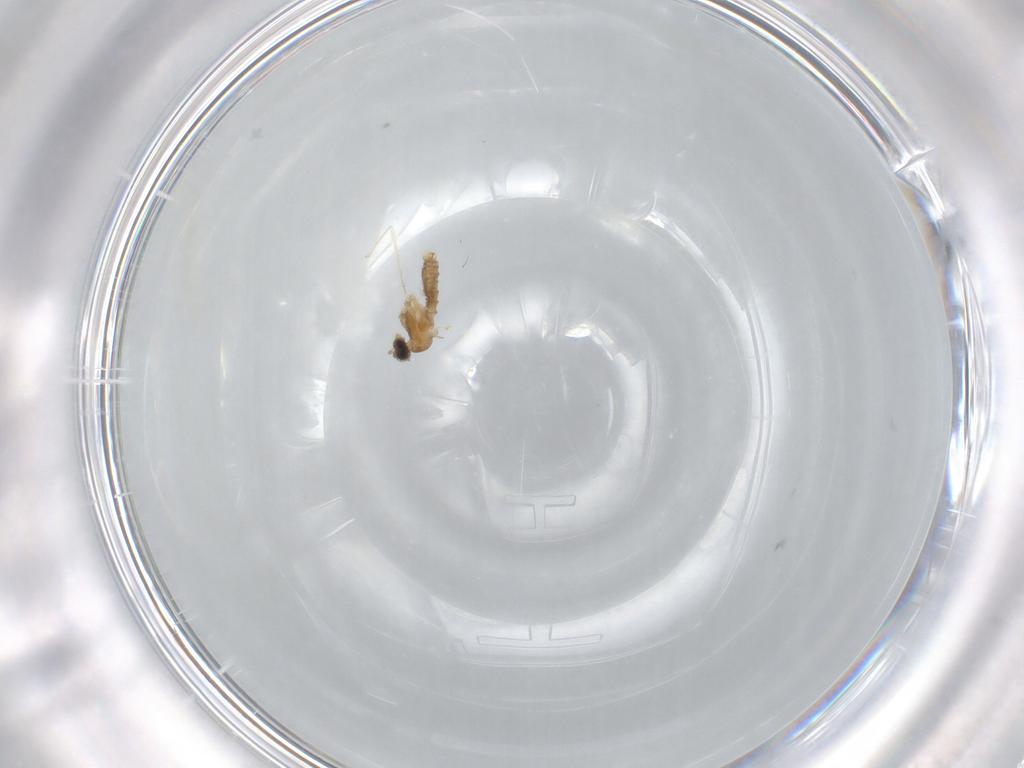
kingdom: Animalia
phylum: Arthropoda
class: Insecta
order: Diptera
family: Cecidomyiidae
